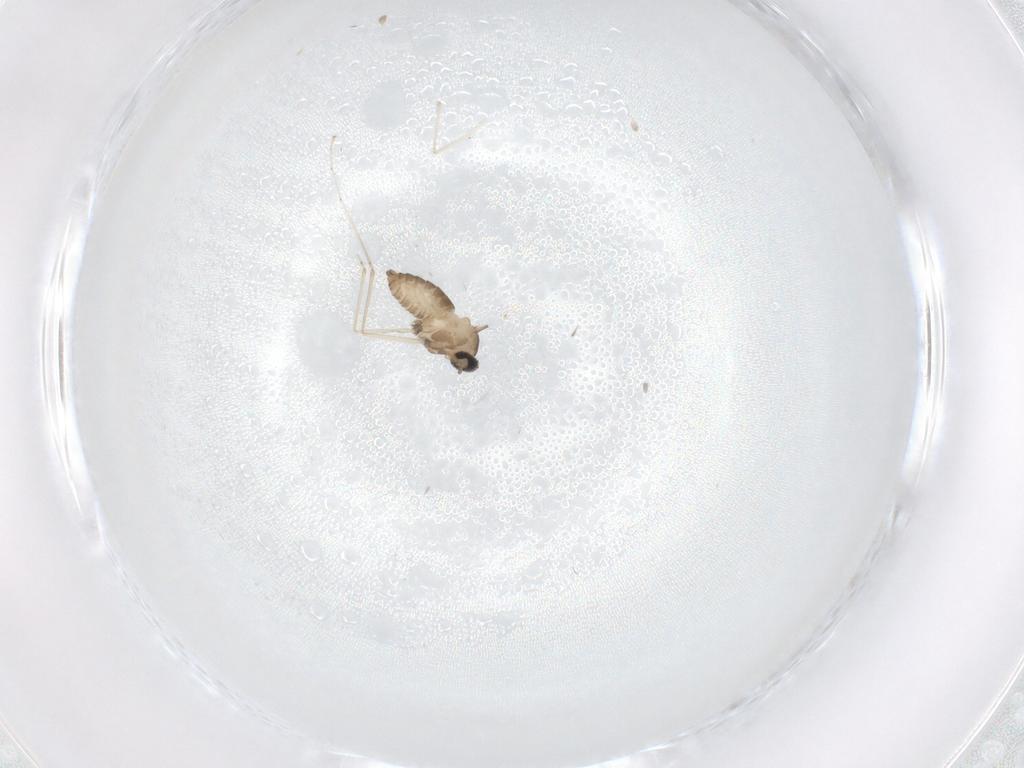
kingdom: Animalia
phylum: Arthropoda
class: Insecta
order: Diptera
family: Cecidomyiidae
